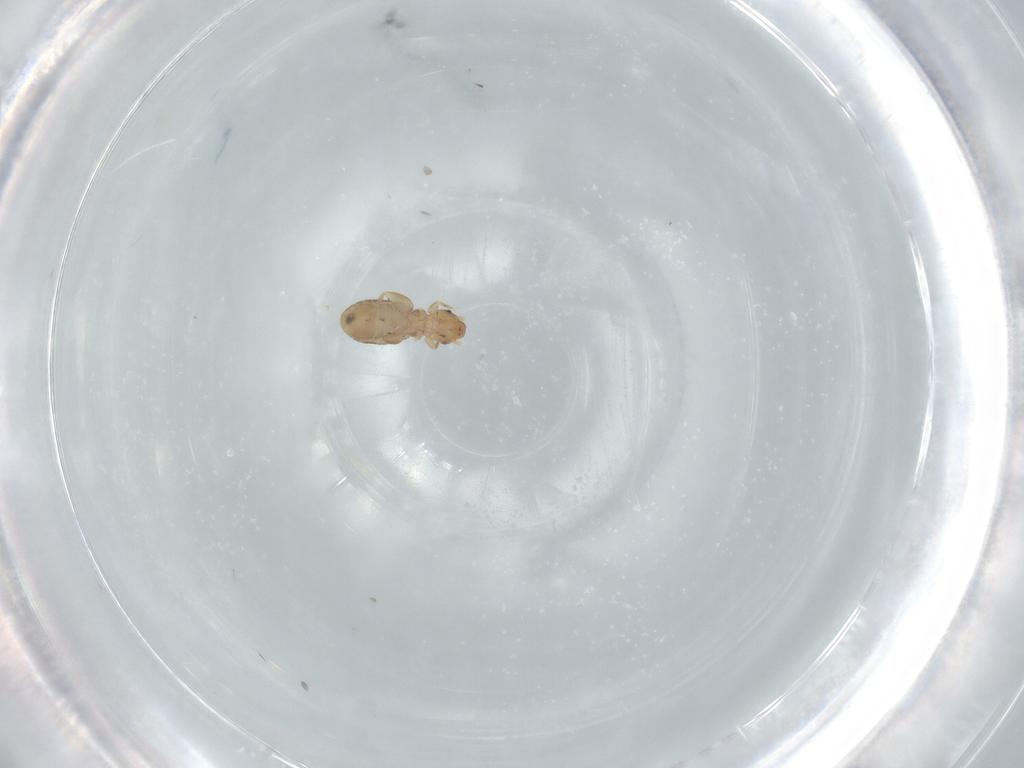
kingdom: Animalia
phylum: Arthropoda
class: Insecta
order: Psocodea
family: Liposcelididae
